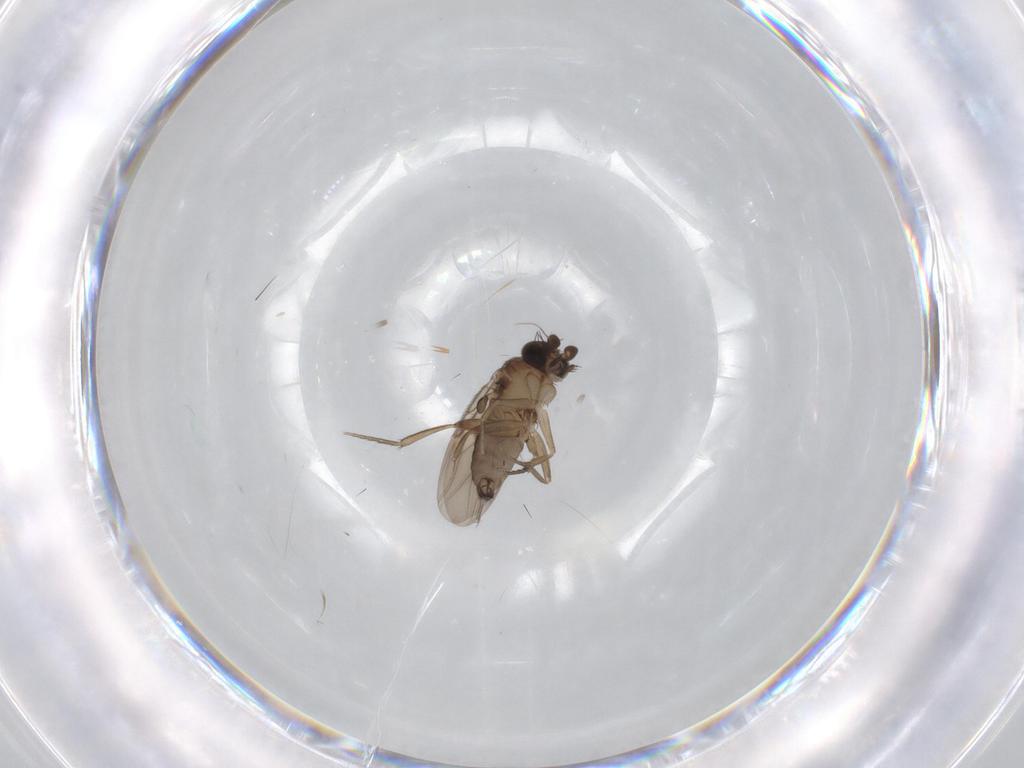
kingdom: Animalia
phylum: Arthropoda
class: Insecta
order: Diptera
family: Phoridae
